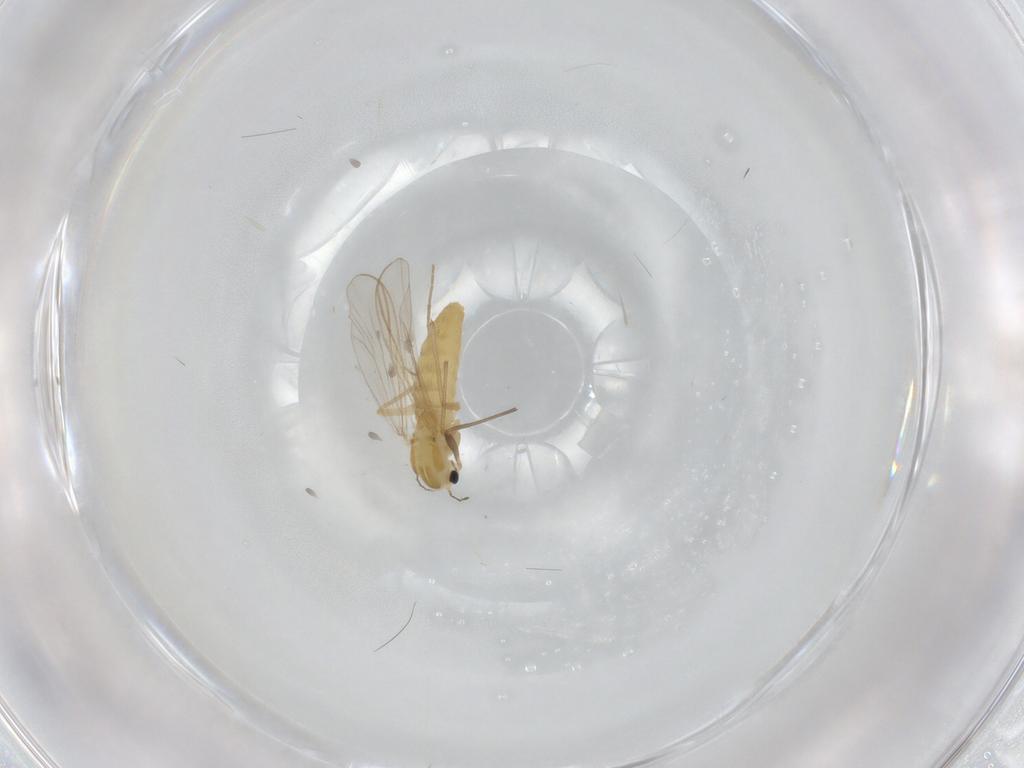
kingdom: Animalia
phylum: Arthropoda
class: Insecta
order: Diptera
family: Chironomidae
